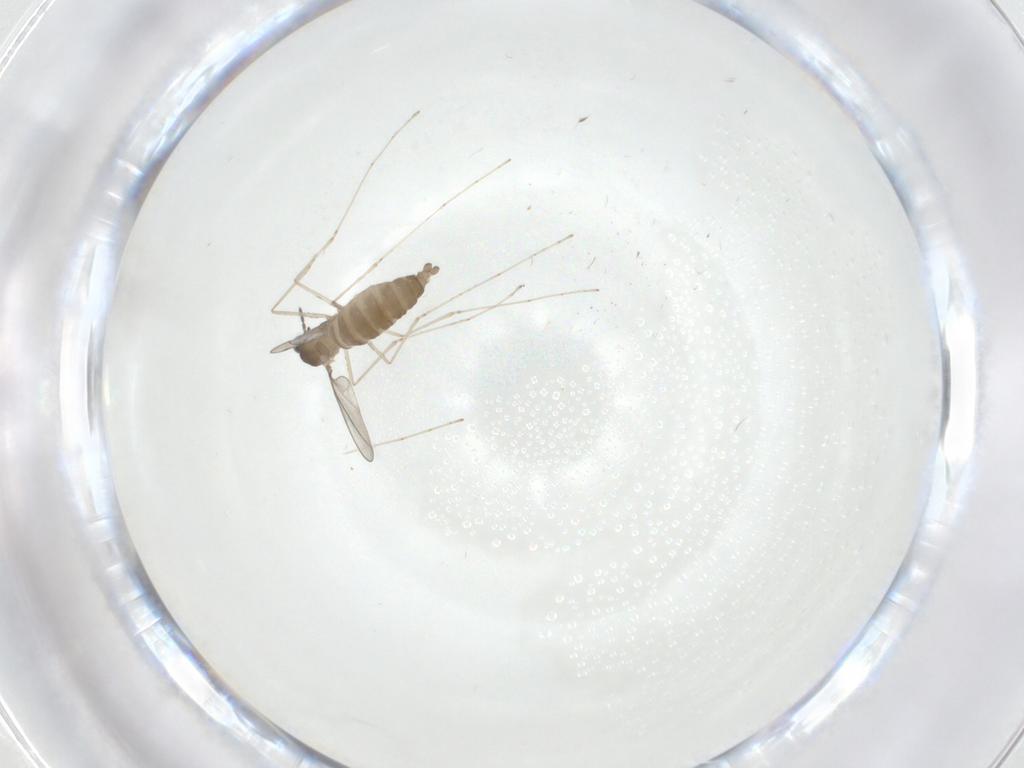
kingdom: Animalia
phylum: Arthropoda
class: Insecta
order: Diptera
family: Cecidomyiidae
